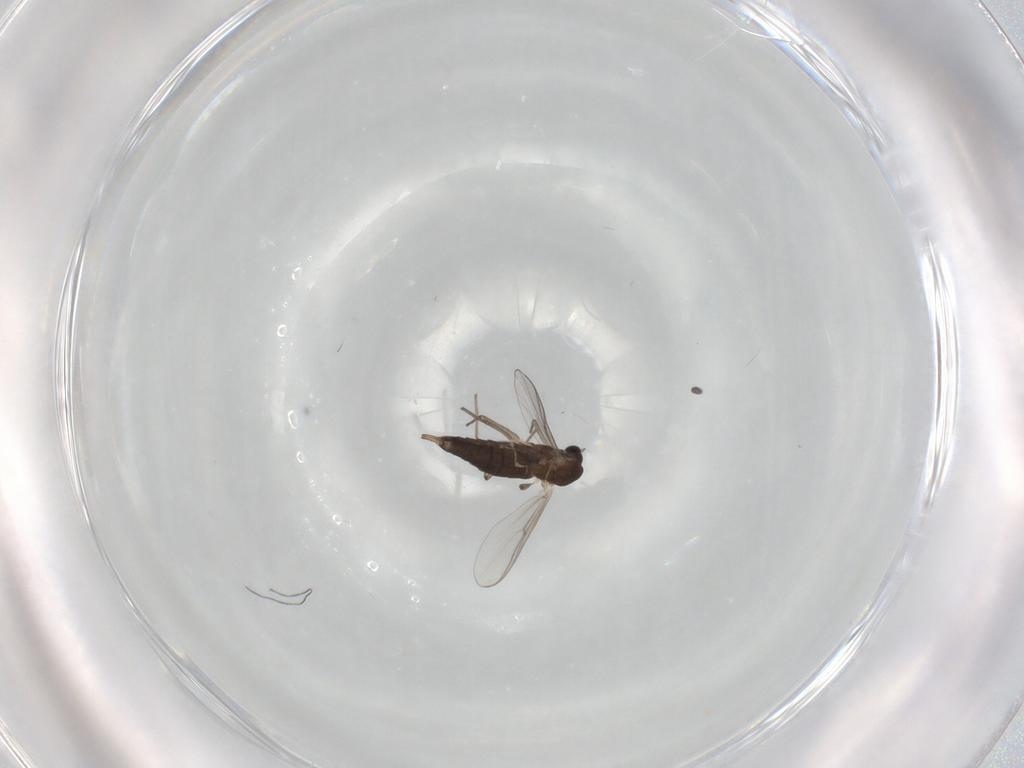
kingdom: Animalia
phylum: Arthropoda
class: Insecta
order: Diptera
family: Chironomidae
